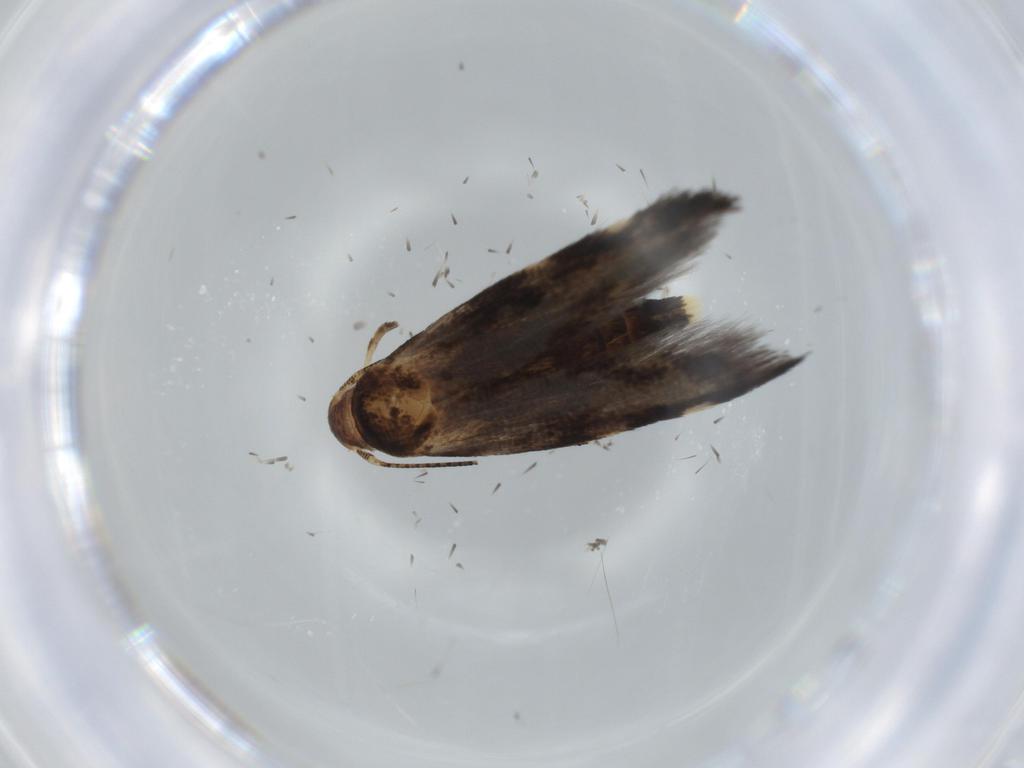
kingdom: Animalia
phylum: Arthropoda
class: Insecta
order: Lepidoptera
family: Momphidae
